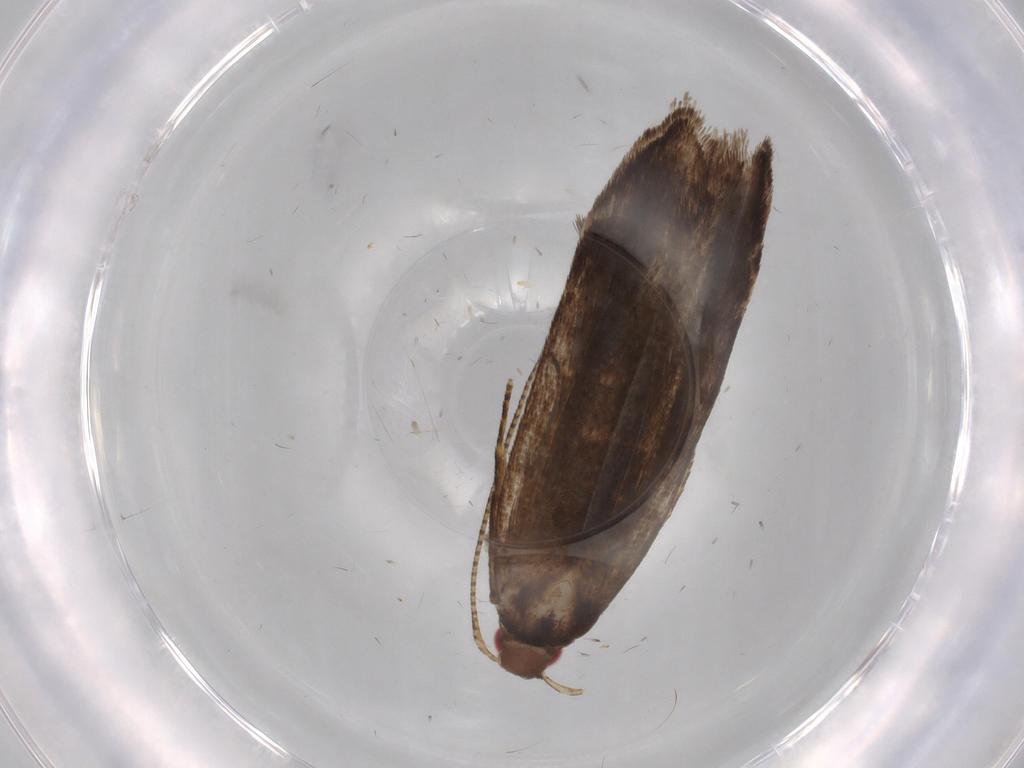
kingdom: Animalia
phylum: Arthropoda
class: Insecta
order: Lepidoptera
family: Gelechiidae
